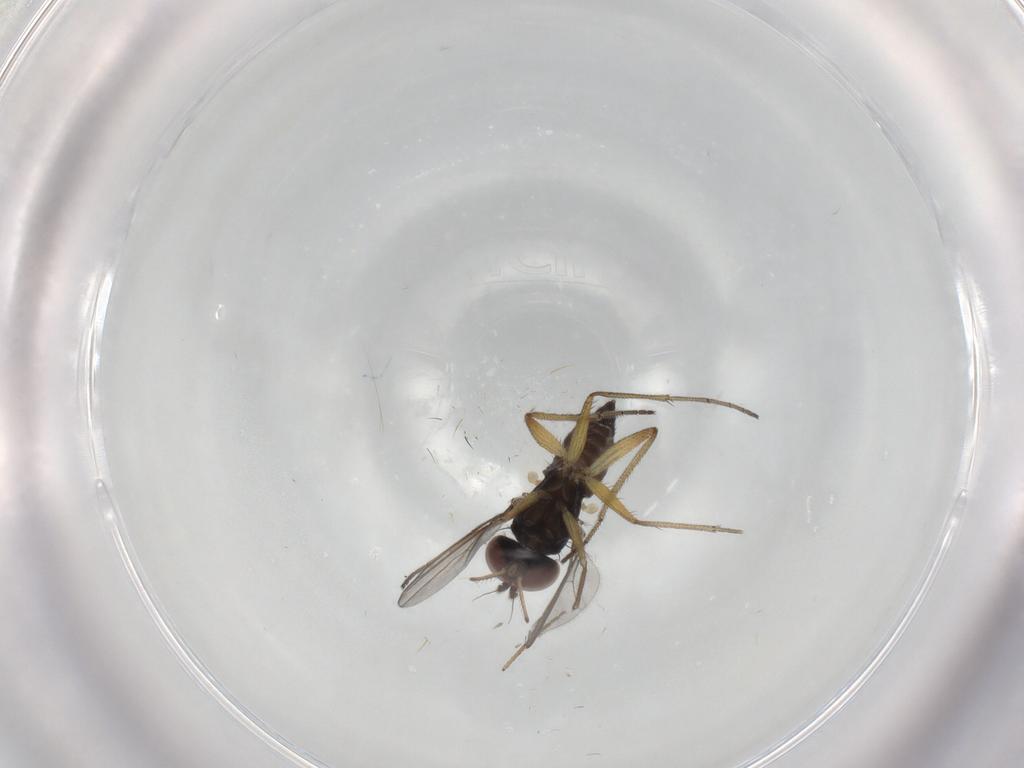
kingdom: Animalia
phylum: Arthropoda
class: Insecta
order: Diptera
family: Dolichopodidae
